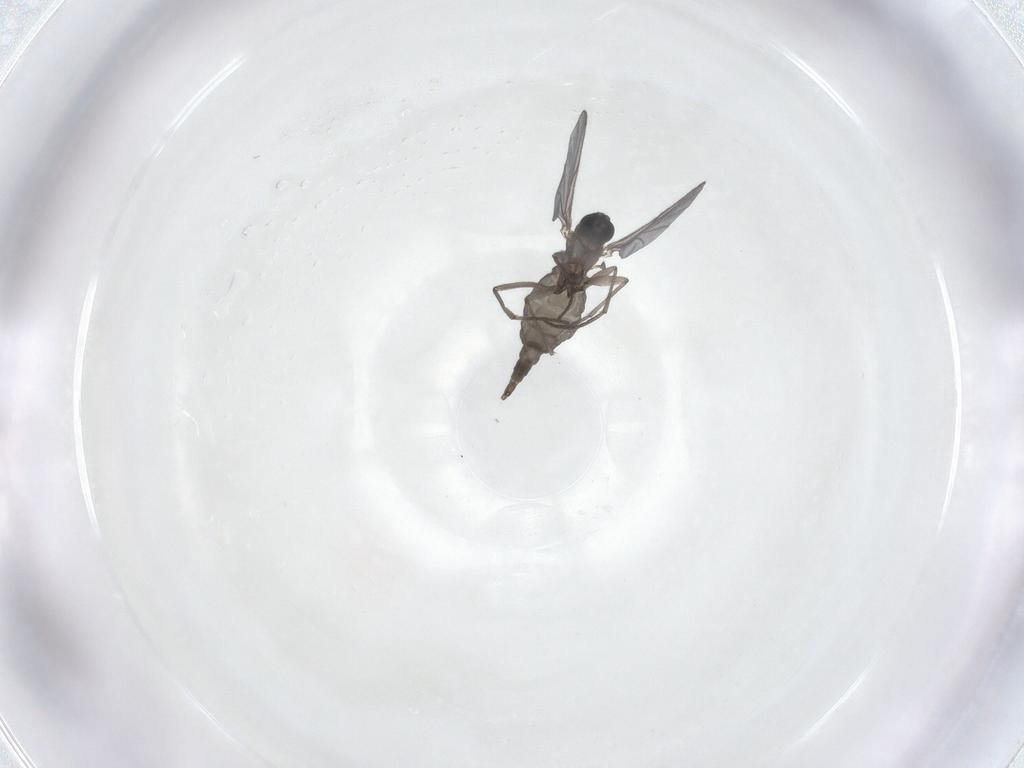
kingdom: Animalia
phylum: Arthropoda
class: Insecta
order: Diptera
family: Sciaridae
